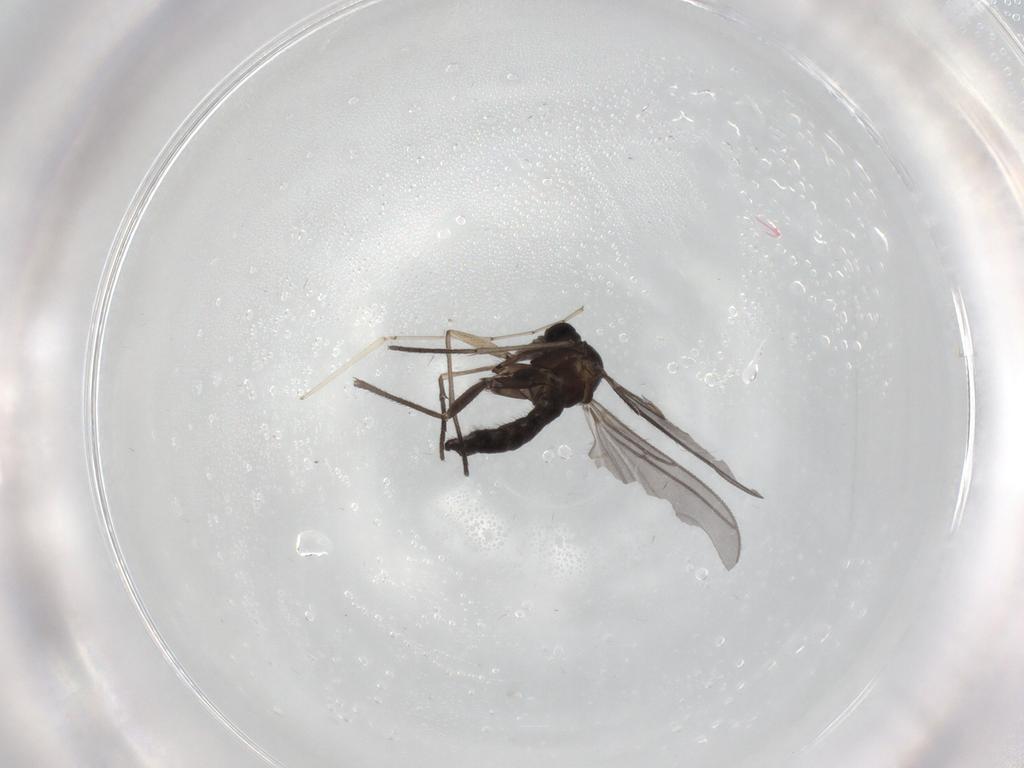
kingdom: Animalia
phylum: Arthropoda
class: Insecta
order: Diptera
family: Sciaridae
